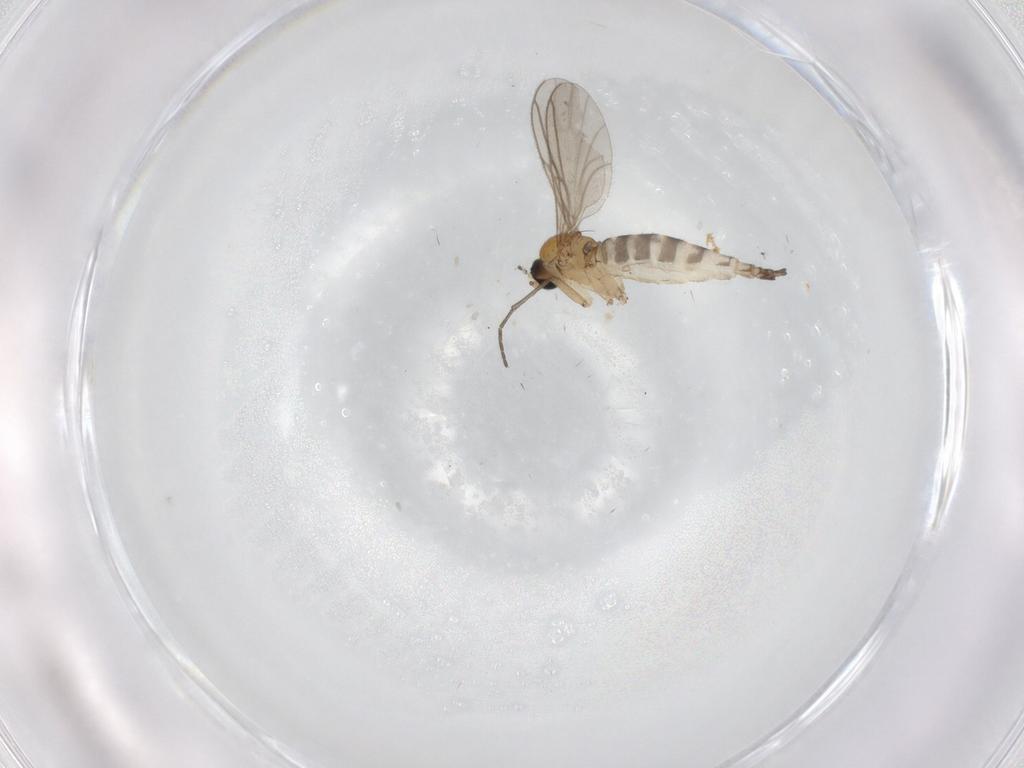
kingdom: Animalia
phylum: Arthropoda
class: Insecta
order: Diptera
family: Psychodidae
